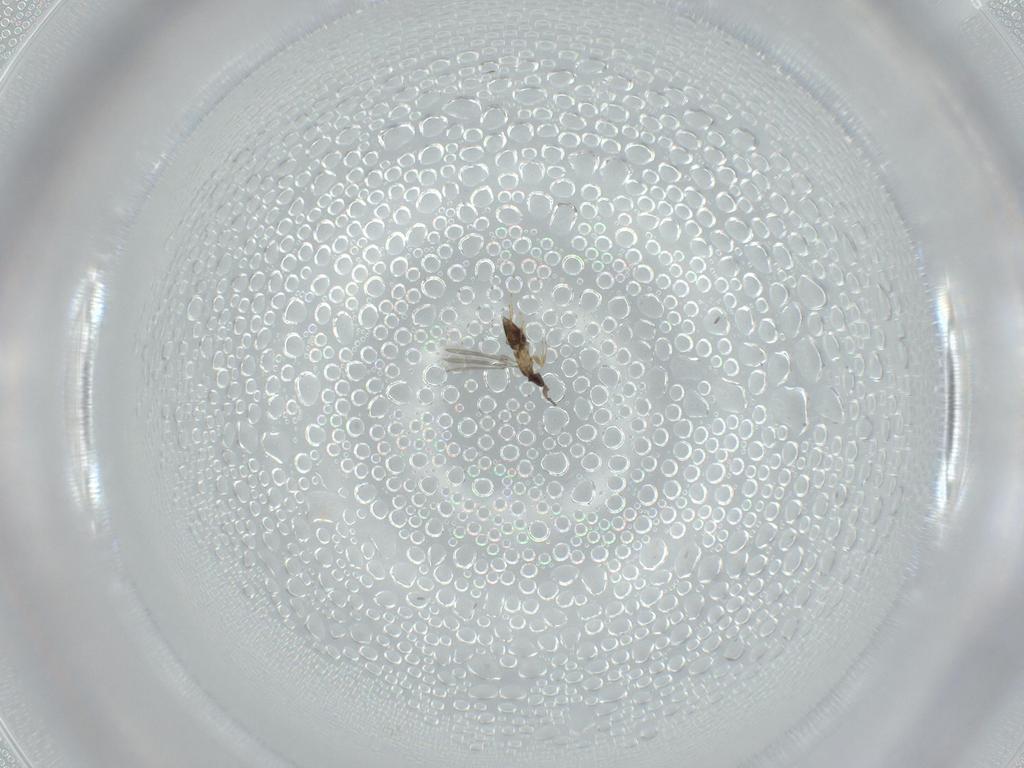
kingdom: Animalia
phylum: Arthropoda
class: Insecta
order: Hymenoptera
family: Mymaridae
